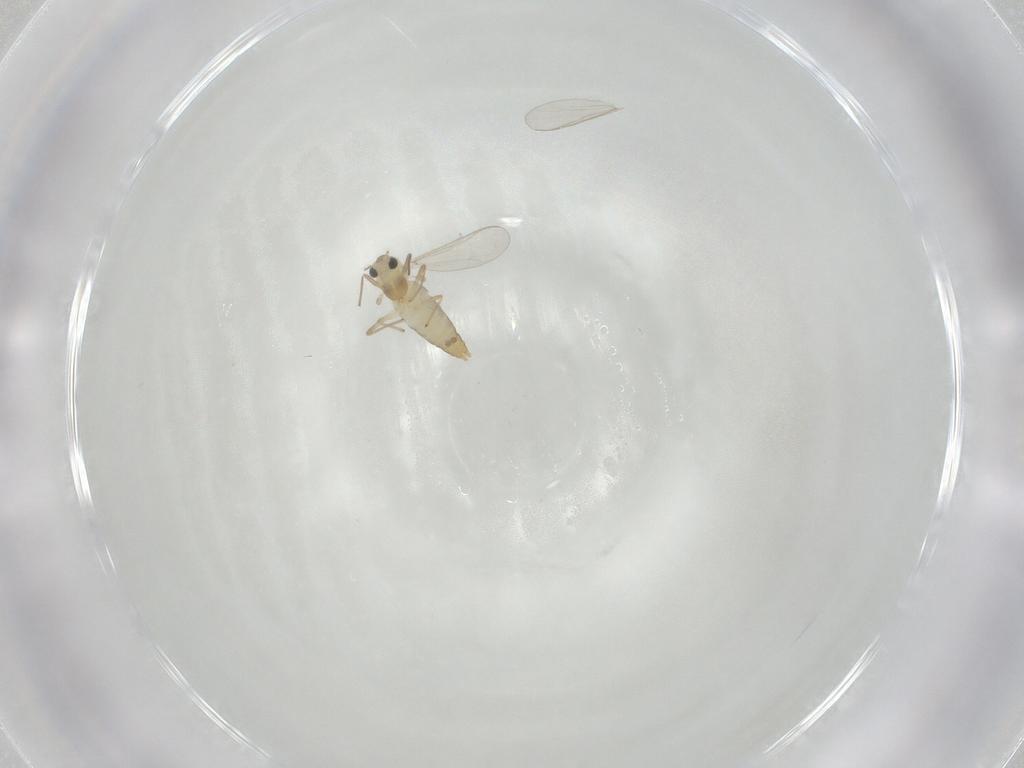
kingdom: Animalia
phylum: Arthropoda
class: Insecta
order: Diptera
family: Chironomidae
